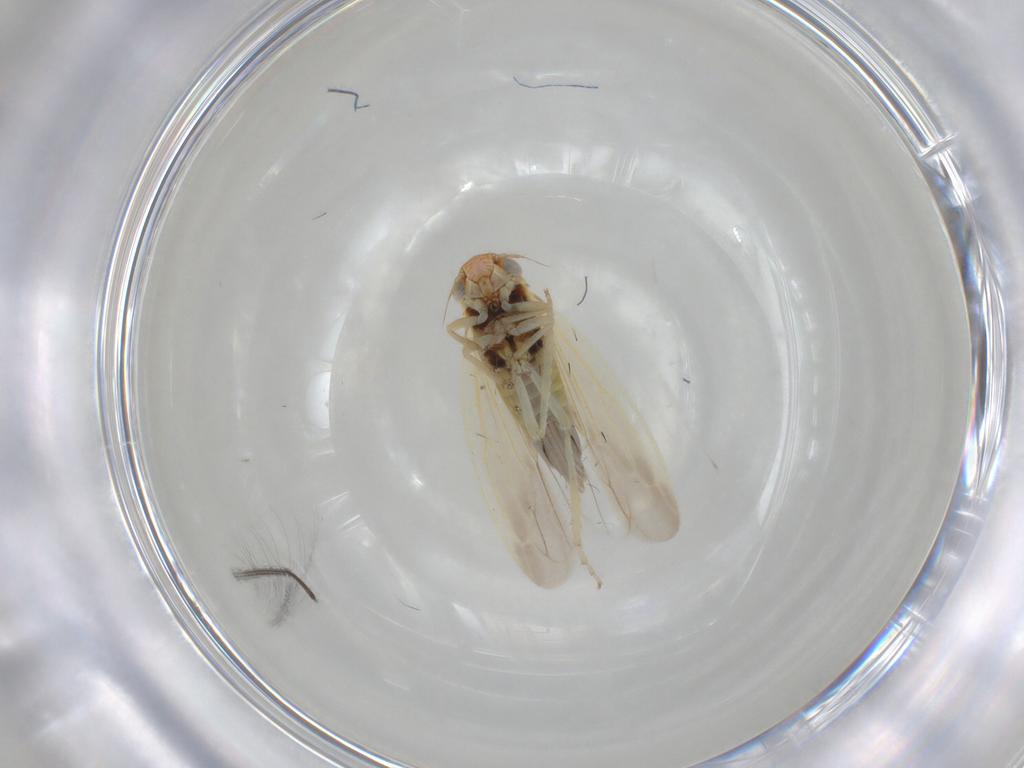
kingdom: Animalia
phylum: Arthropoda
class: Insecta
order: Hemiptera
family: Cicadellidae
